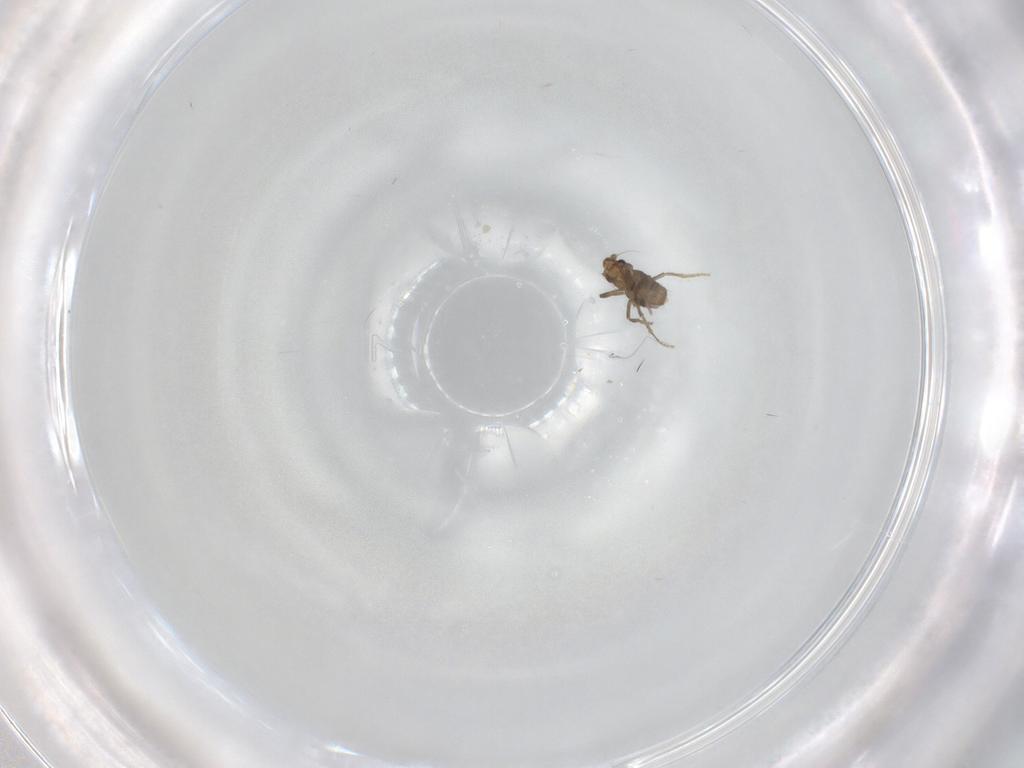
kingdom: Animalia
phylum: Arthropoda
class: Insecta
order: Diptera
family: Phoridae
